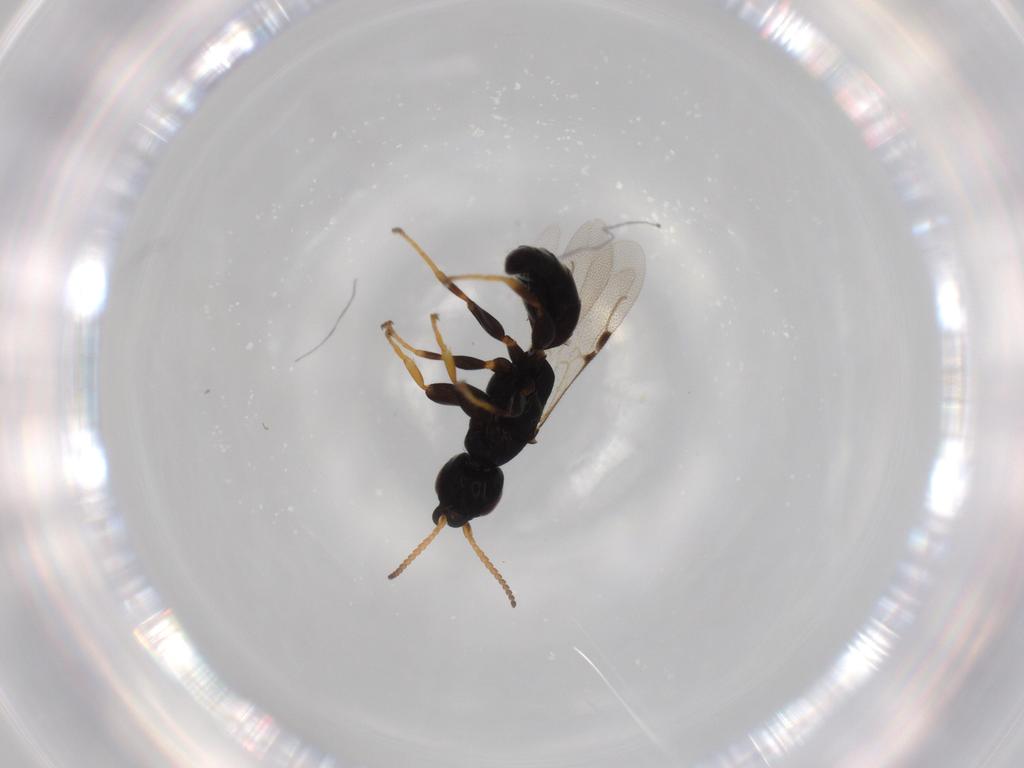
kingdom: Animalia
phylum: Arthropoda
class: Insecta
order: Hymenoptera
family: Bethylidae
